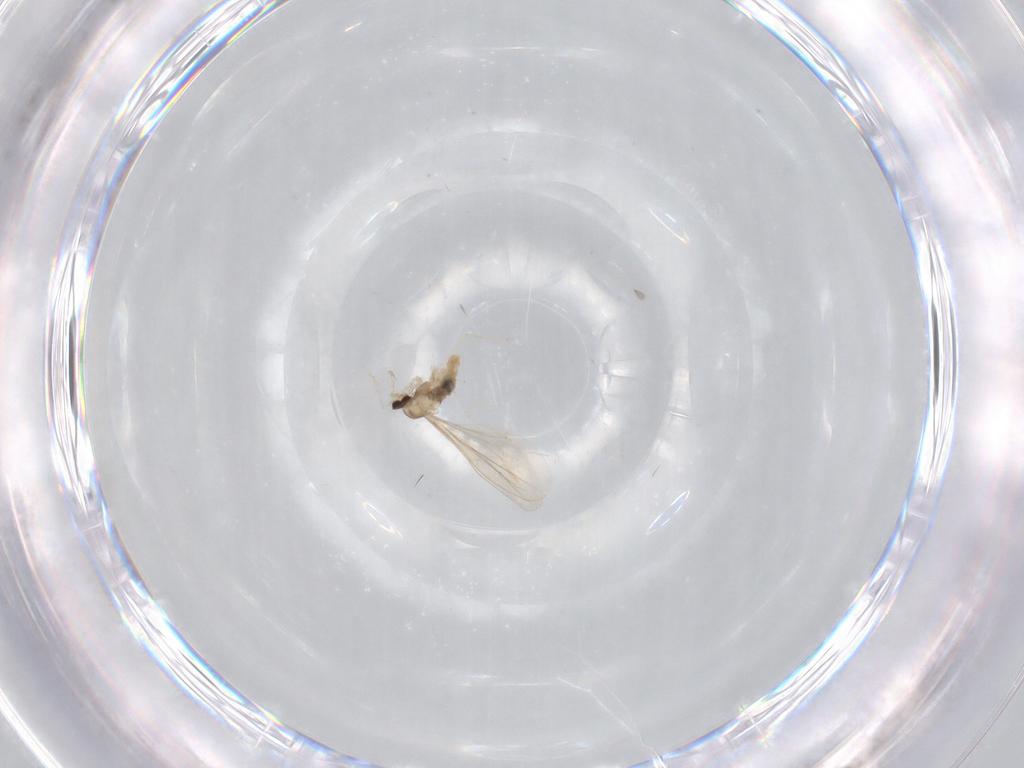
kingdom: Animalia
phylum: Arthropoda
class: Insecta
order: Diptera
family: Cecidomyiidae
